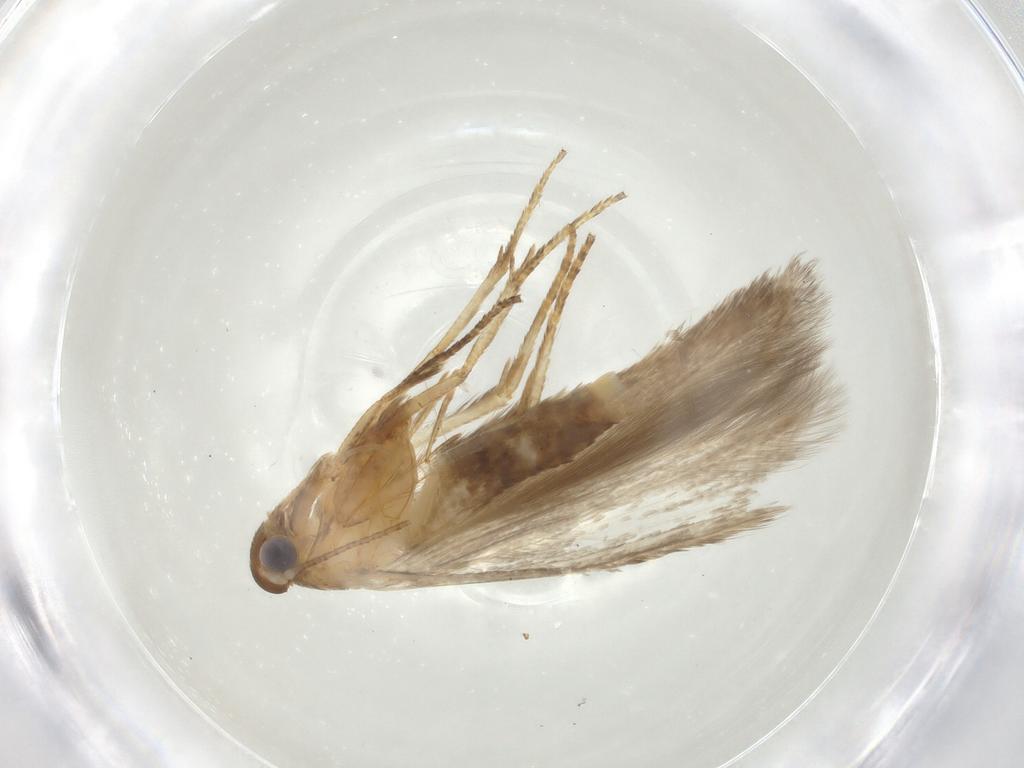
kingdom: Animalia
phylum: Arthropoda
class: Insecta
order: Lepidoptera
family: Coleophoridae
